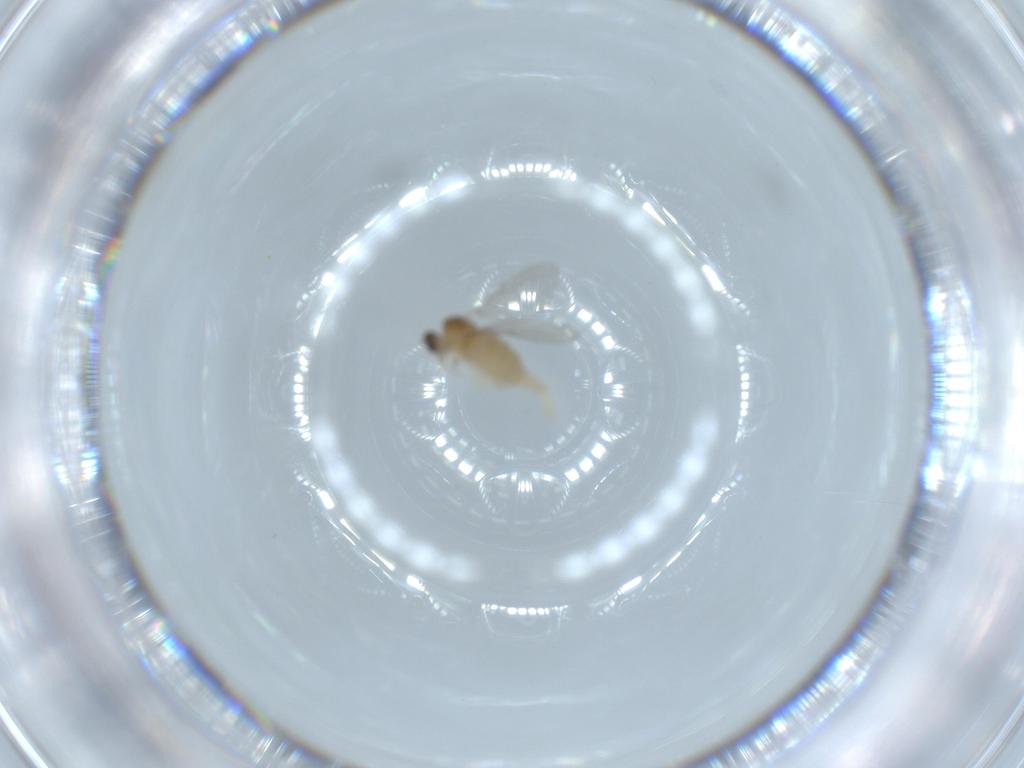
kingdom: Animalia
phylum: Arthropoda
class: Insecta
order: Diptera
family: Cecidomyiidae
